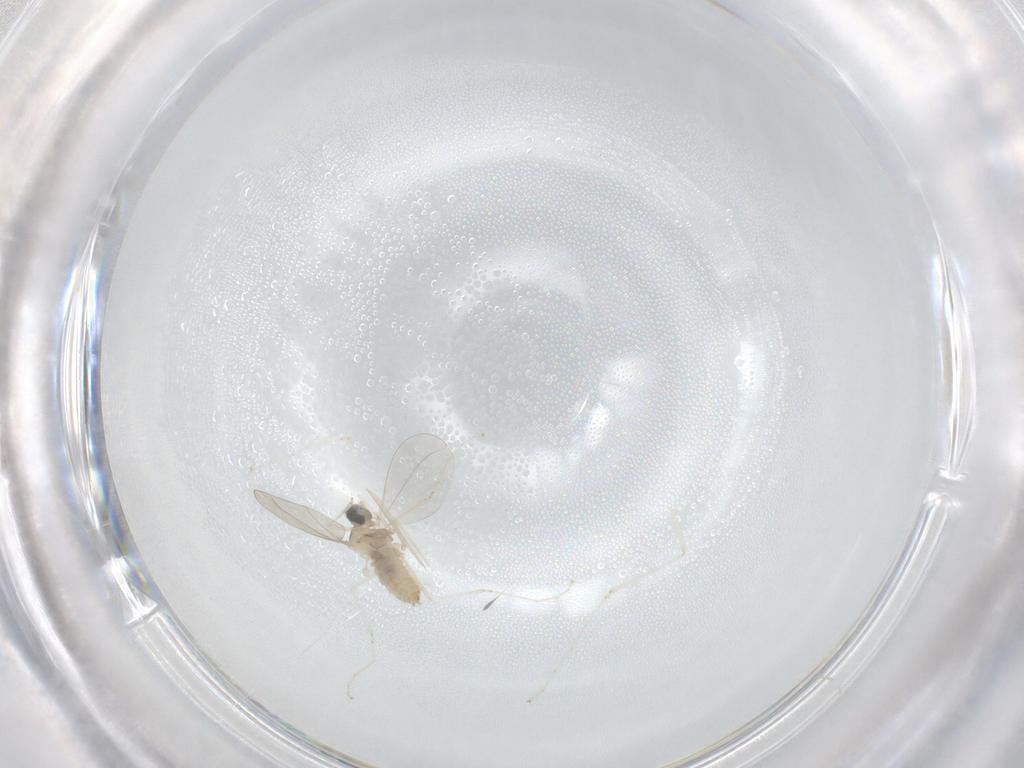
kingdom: Animalia
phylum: Arthropoda
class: Insecta
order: Diptera
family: Cecidomyiidae
